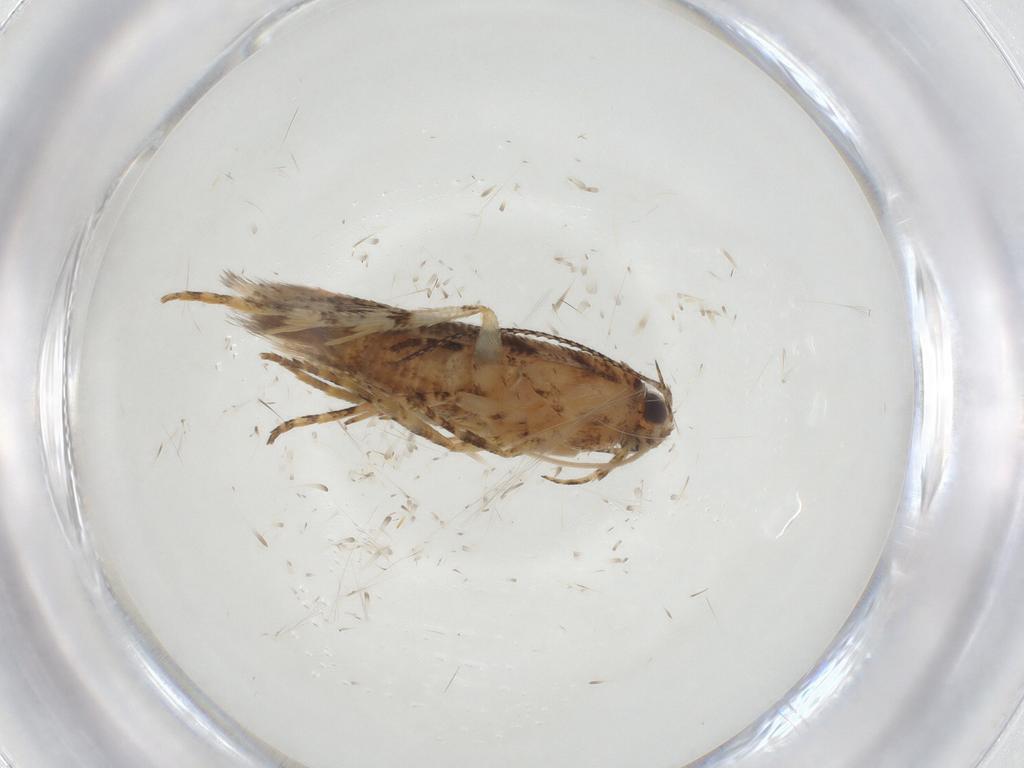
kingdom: Animalia
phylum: Arthropoda
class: Insecta
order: Lepidoptera
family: Gelechiidae
